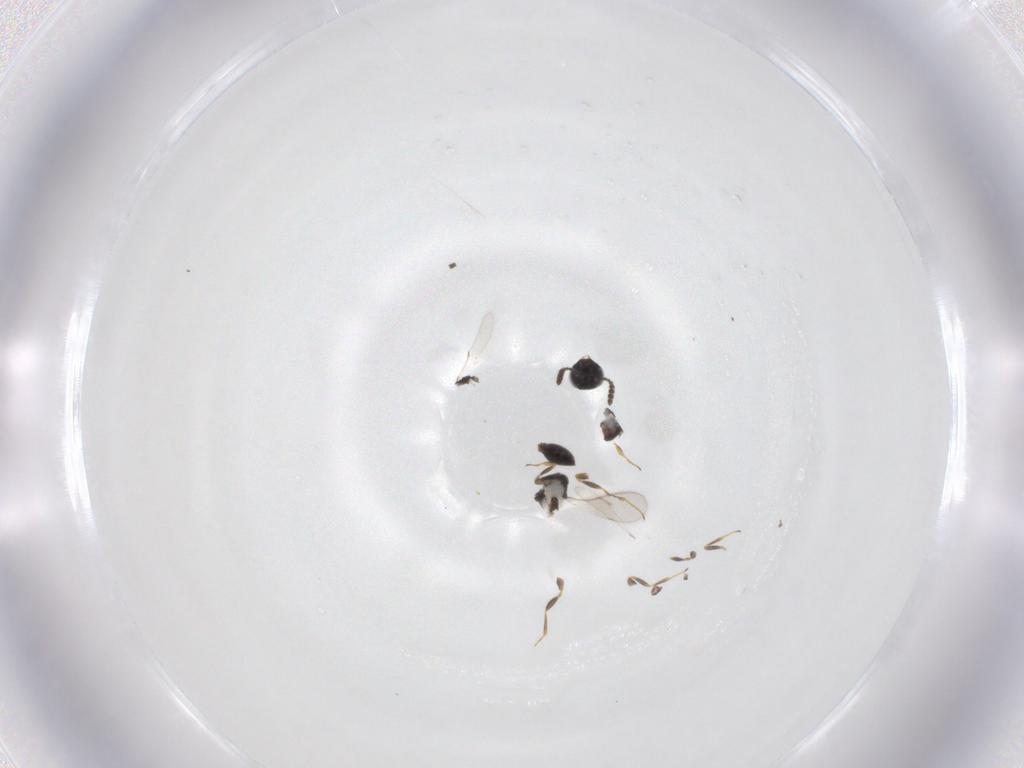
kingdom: Animalia
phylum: Arthropoda
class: Insecta
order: Hymenoptera
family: Scelionidae
